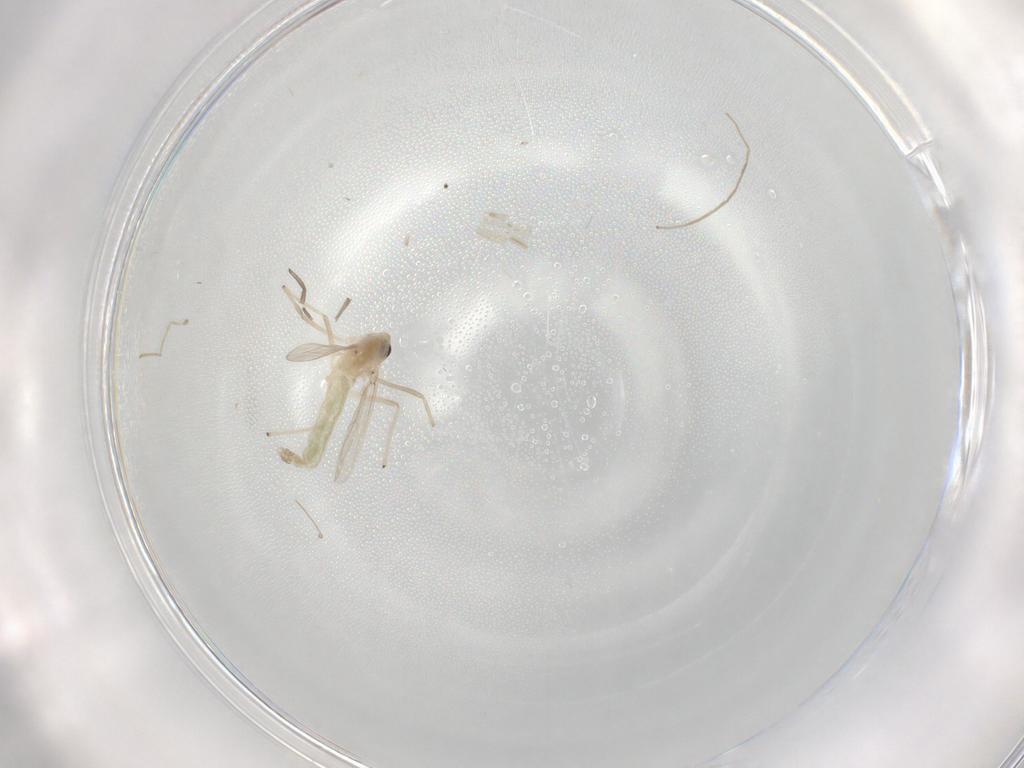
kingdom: Animalia
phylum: Arthropoda
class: Insecta
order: Diptera
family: Chironomidae
